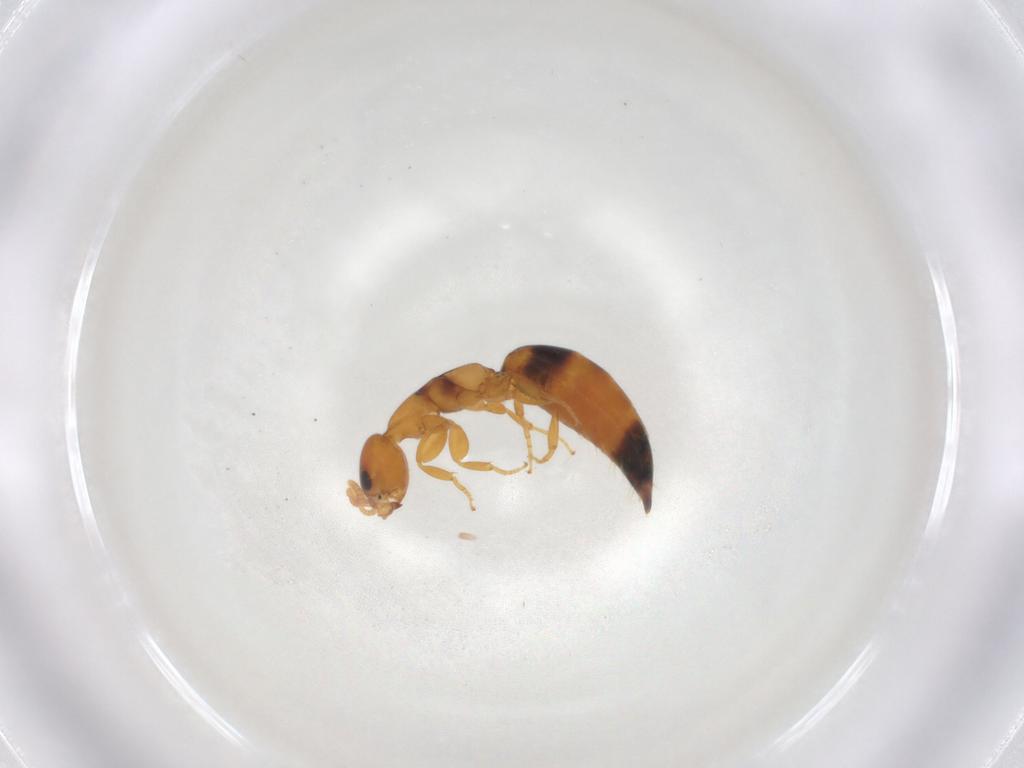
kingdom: Animalia
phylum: Arthropoda
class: Insecta
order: Hymenoptera
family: Bethylidae
